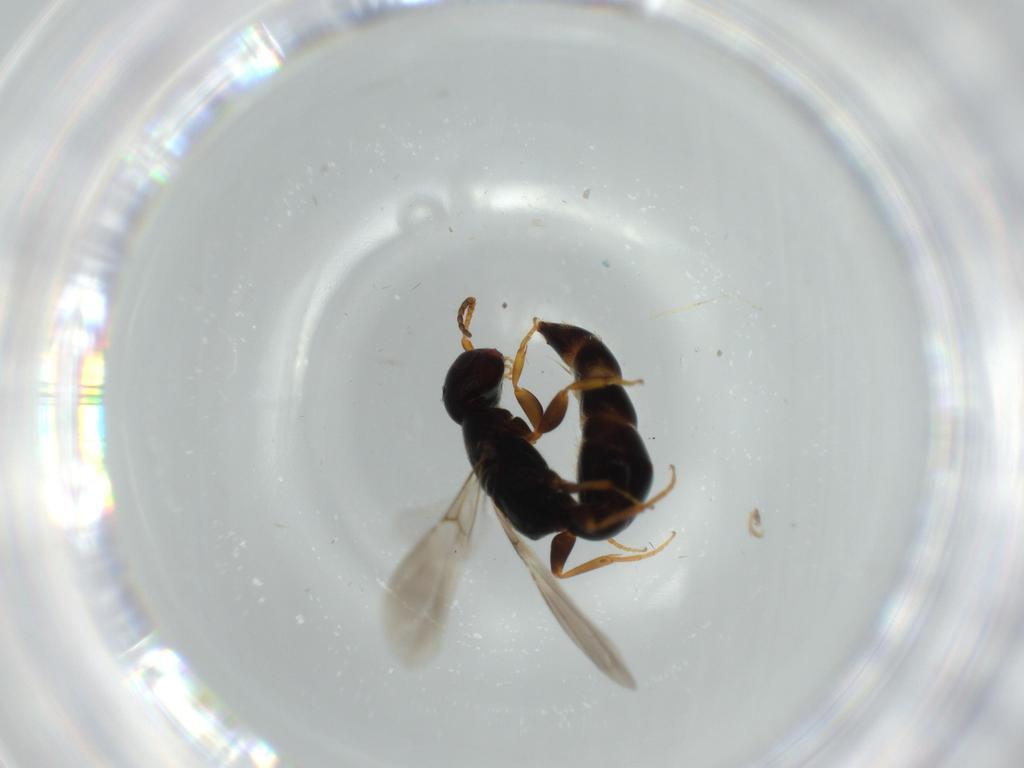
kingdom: Animalia
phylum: Arthropoda
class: Insecta
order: Hymenoptera
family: Bethylidae
